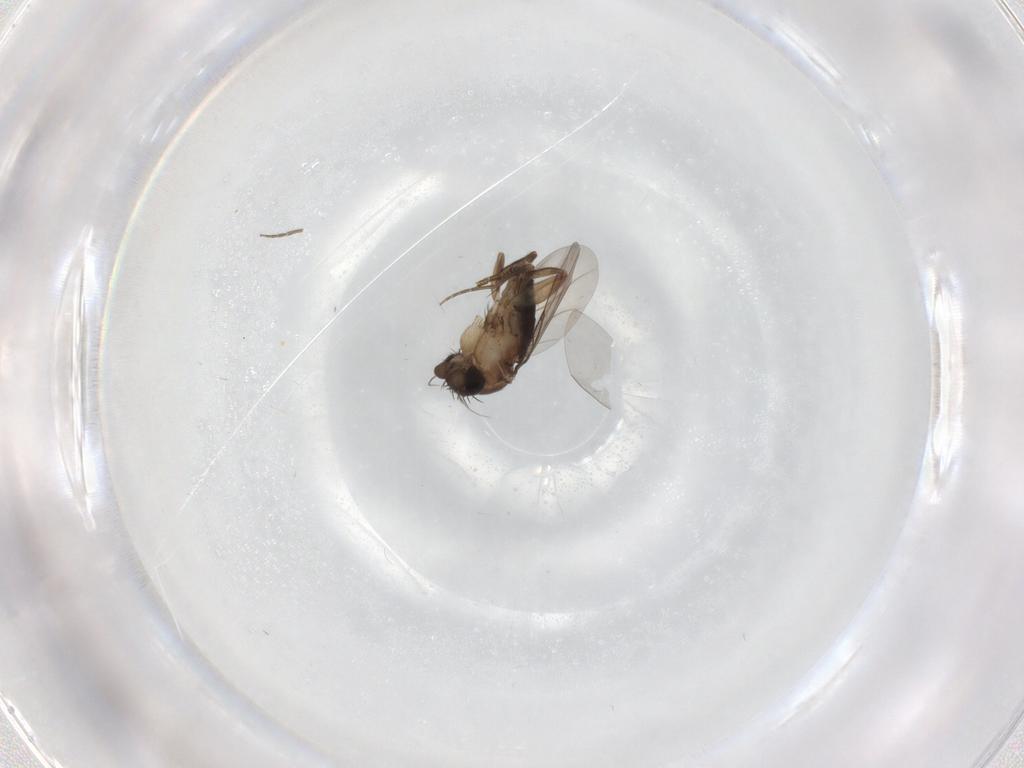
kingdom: Animalia
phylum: Arthropoda
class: Insecta
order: Diptera
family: Phoridae
